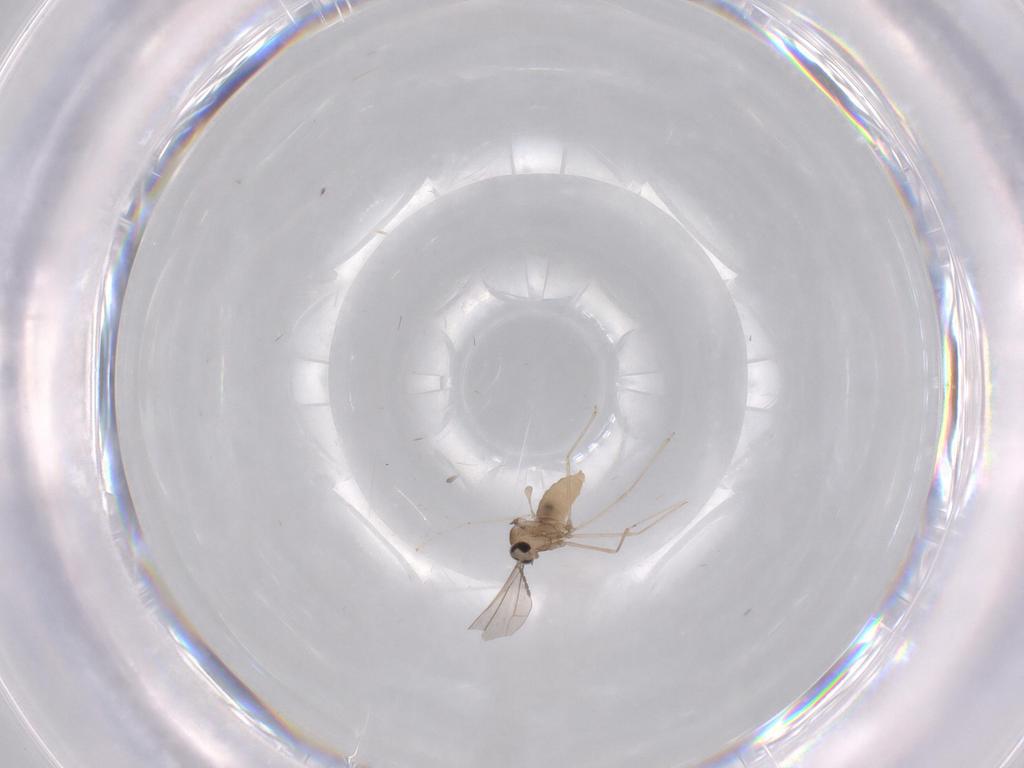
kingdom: Animalia
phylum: Arthropoda
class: Insecta
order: Diptera
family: Cecidomyiidae
